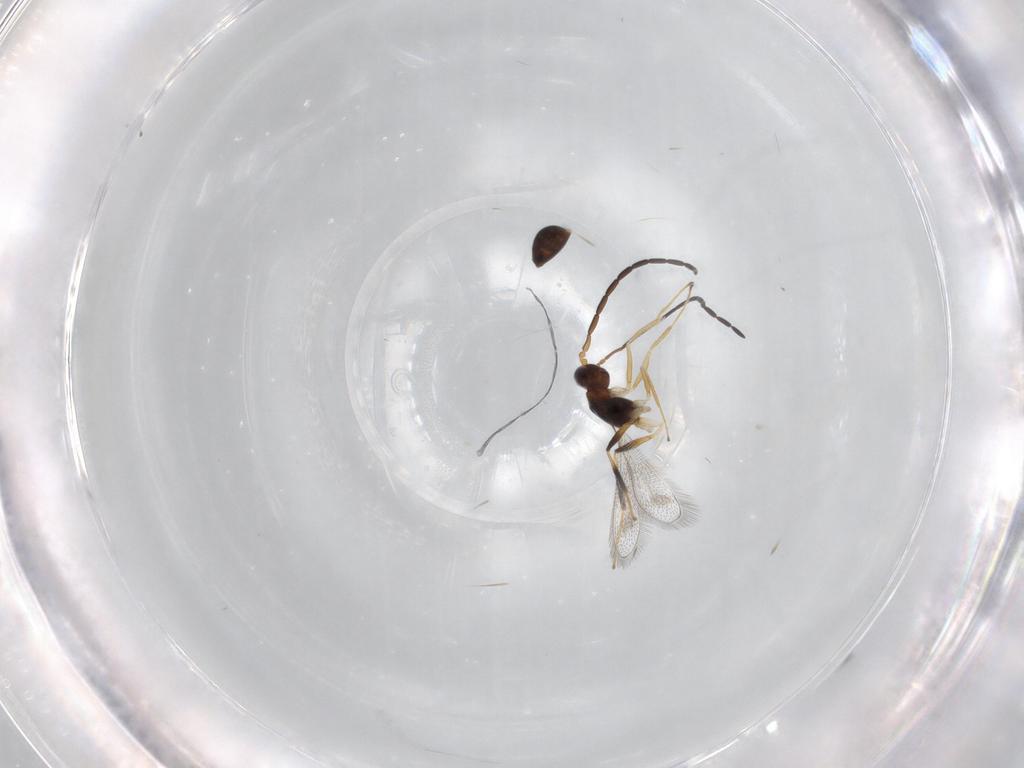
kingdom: Animalia
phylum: Arthropoda
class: Insecta
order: Hymenoptera
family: Mymaridae
